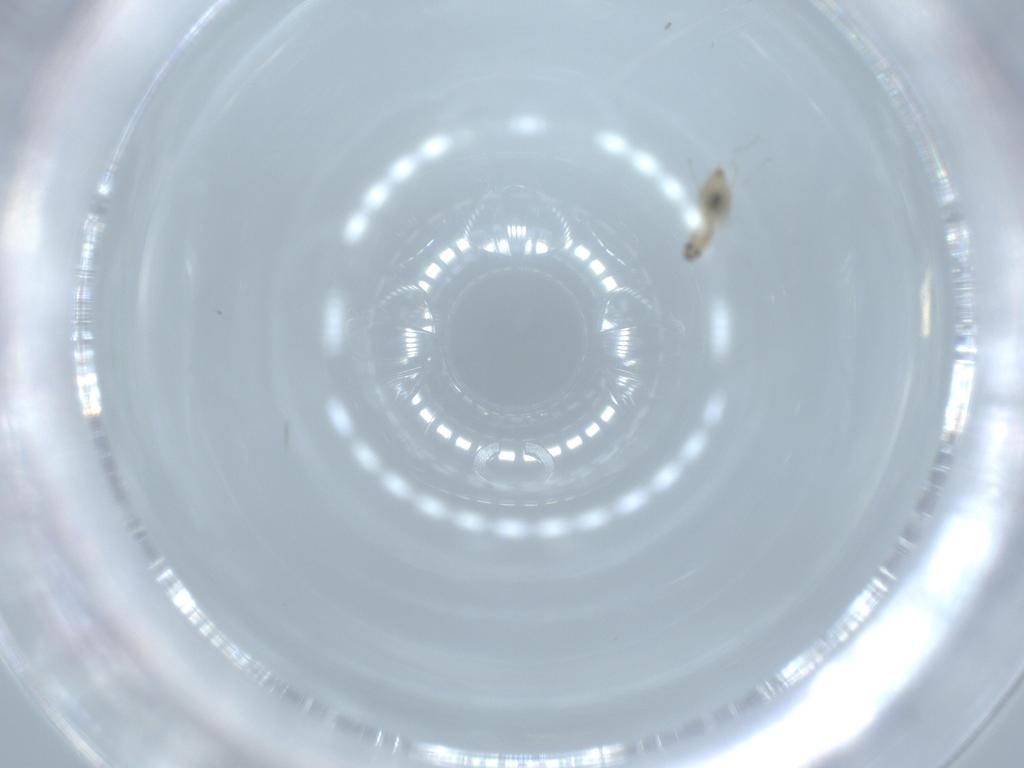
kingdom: Animalia
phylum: Arthropoda
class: Insecta
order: Diptera
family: Cecidomyiidae
